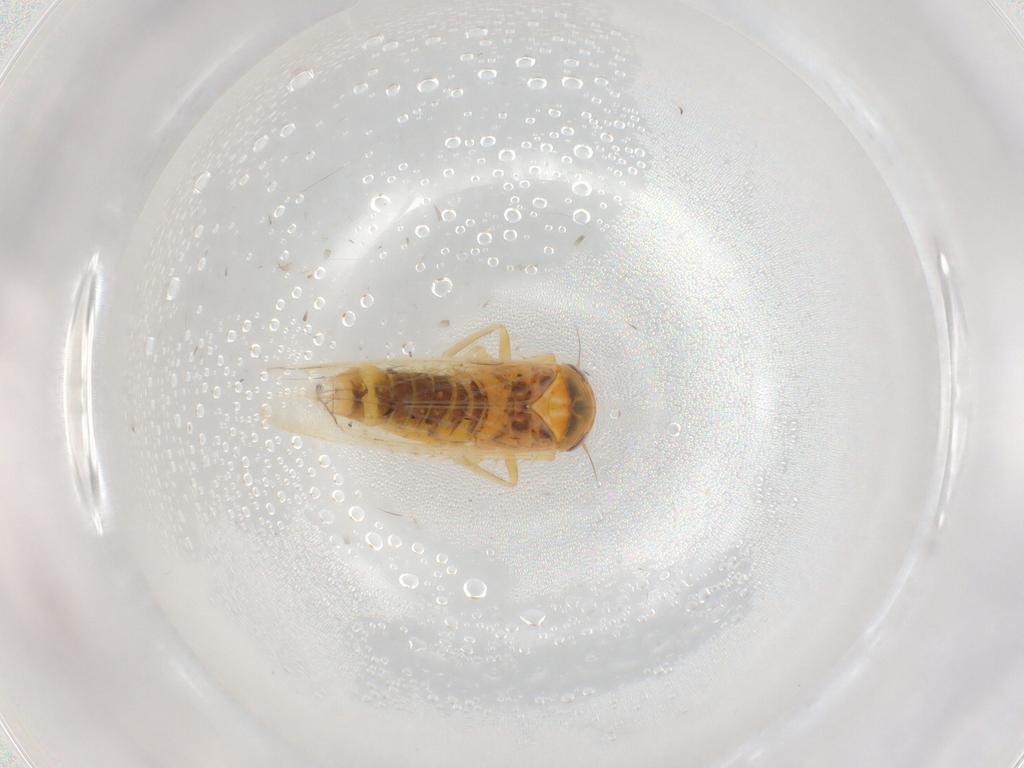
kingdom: Animalia
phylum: Arthropoda
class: Insecta
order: Hemiptera
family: Cicadellidae
